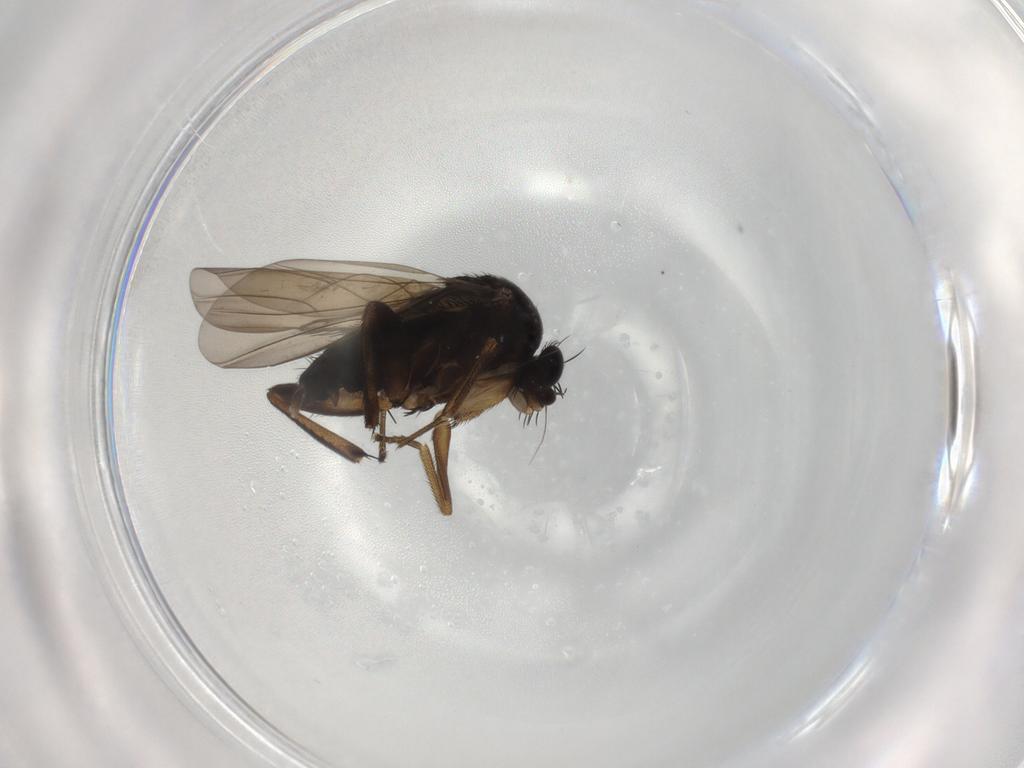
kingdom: Animalia
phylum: Arthropoda
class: Insecta
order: Diptera
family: Phoridae
